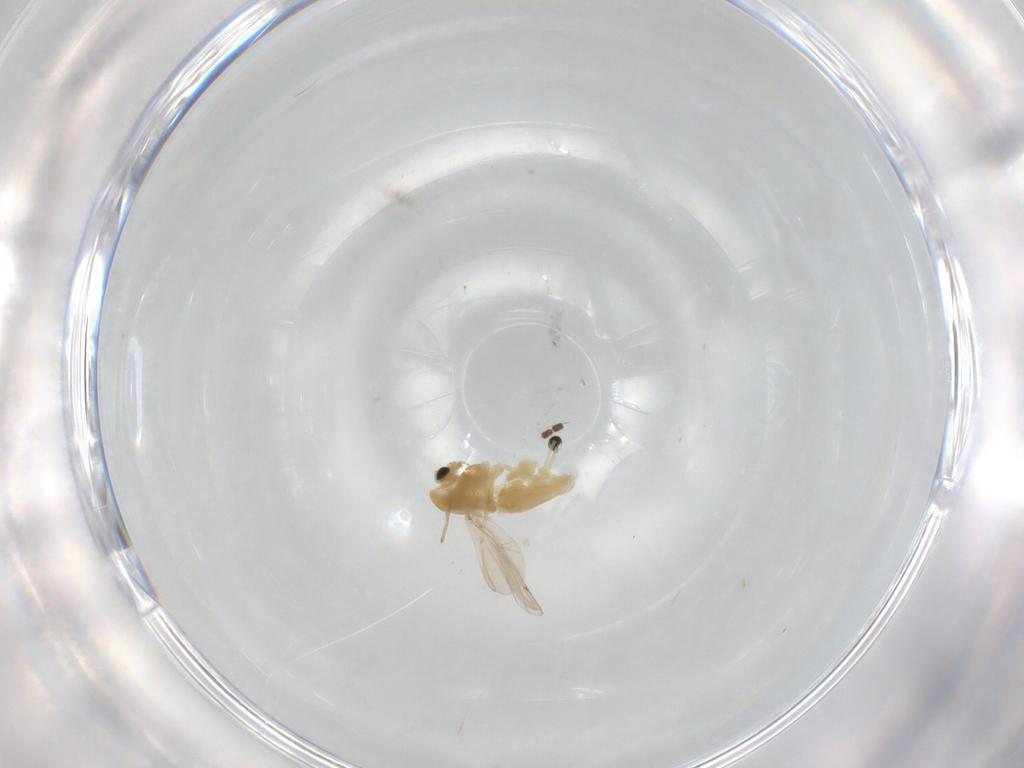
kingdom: Animalia
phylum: Arthropoda
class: Insecta
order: Diptera
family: Chironomidae
